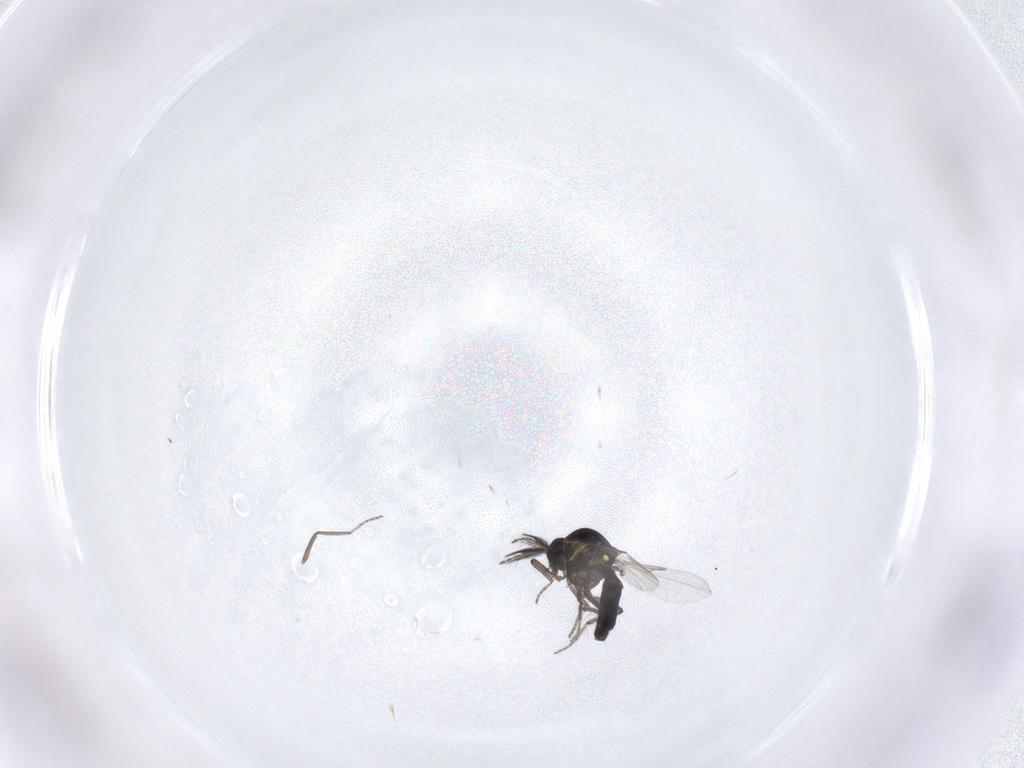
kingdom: Animalia
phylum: Arthropoda
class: Insecta
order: Diptera
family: Ceratopogonidae
